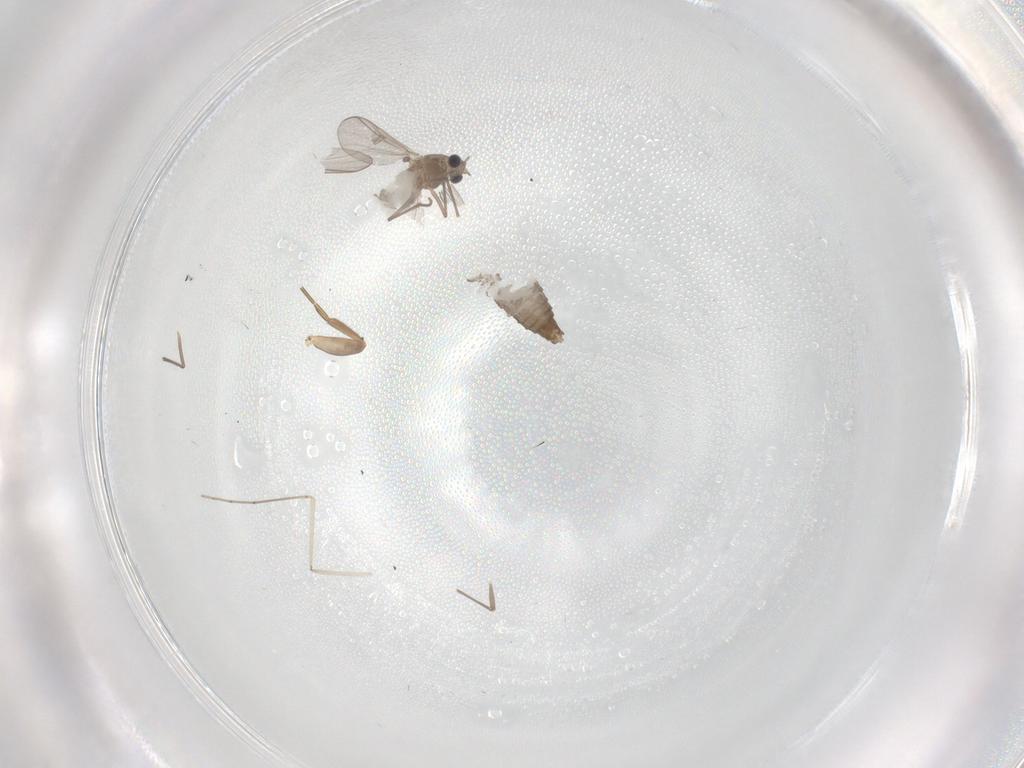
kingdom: Animalia
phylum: Arthropoda
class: Insecta
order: Diptera
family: Chironomidae
